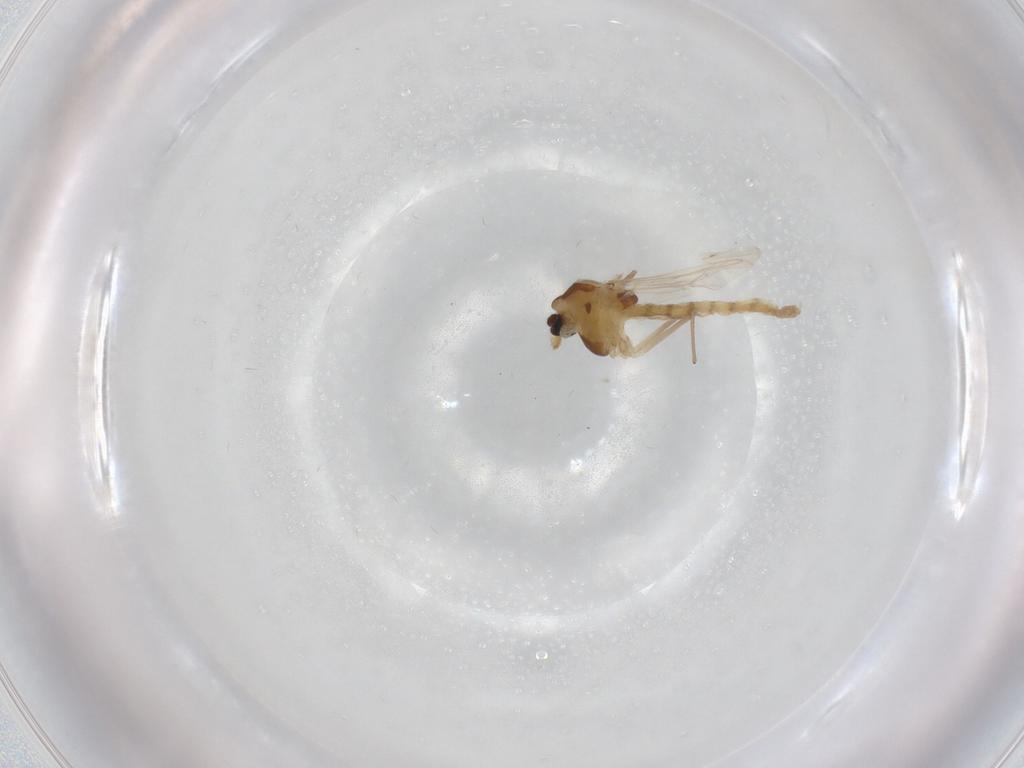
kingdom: Animalia
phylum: Arthropoda
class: Insecta
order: Diptera
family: Chironomidae
